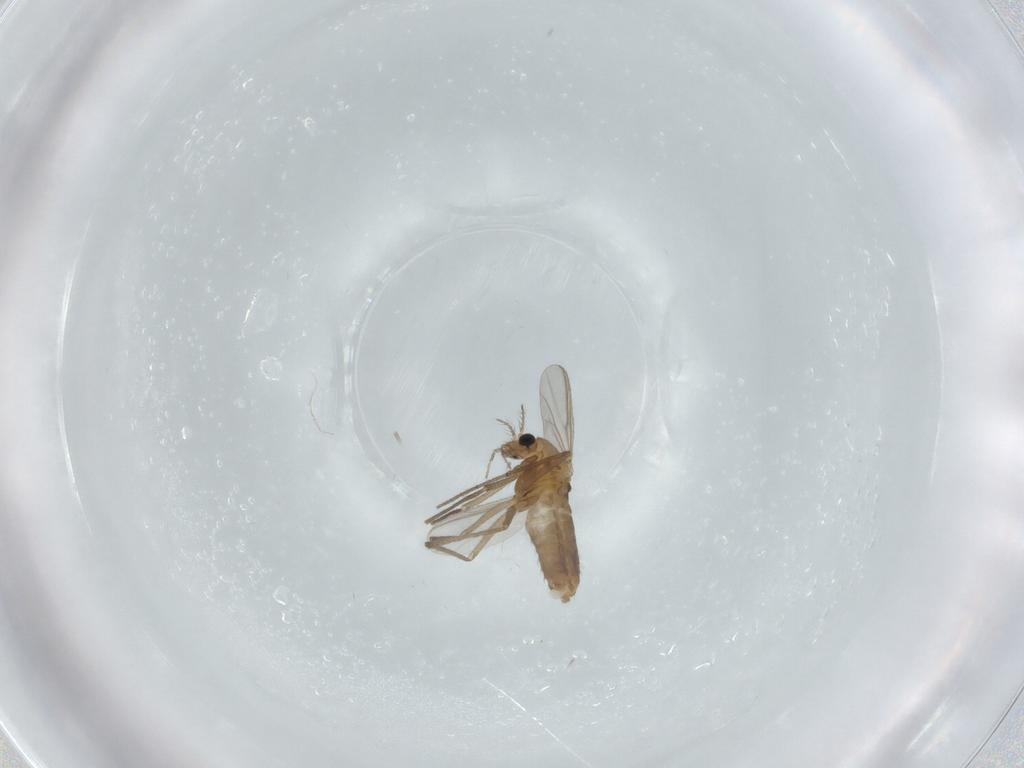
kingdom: Animalia
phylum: Arthropoda
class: Insecta
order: Diptera
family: Chironomidae
